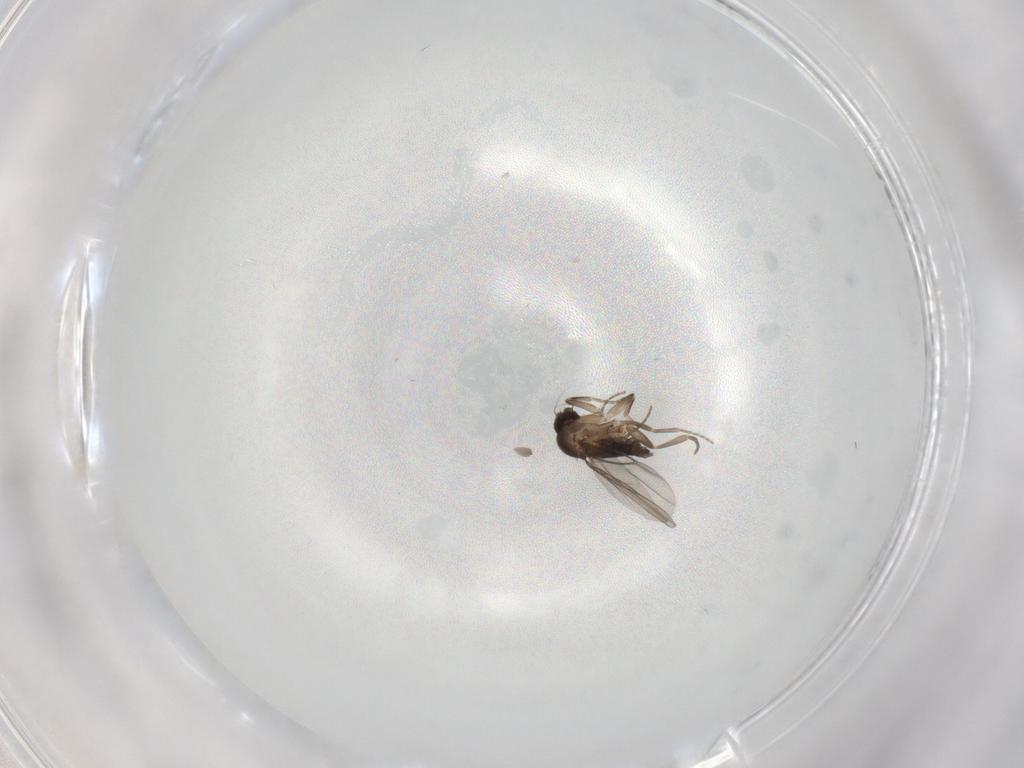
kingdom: Animalia
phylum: Arthropoda
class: Insecta
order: Diptera
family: Phoridae
